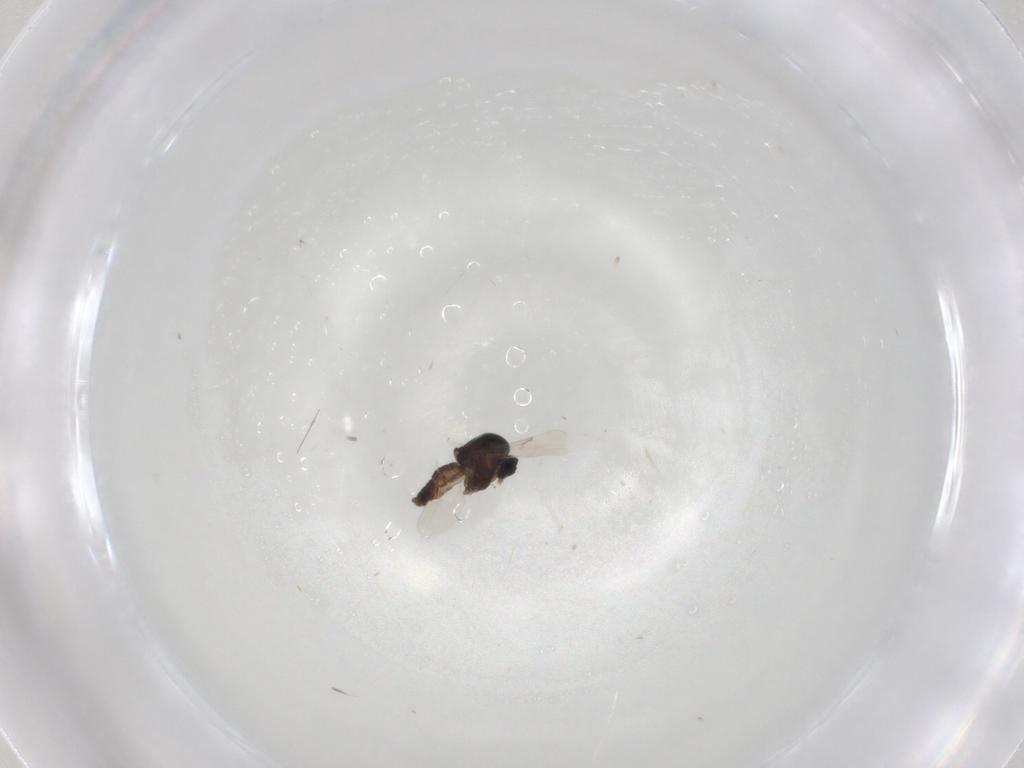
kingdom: Animalia
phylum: Arthropoda
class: Insecta
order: Diptera
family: Ceratopogonidae
